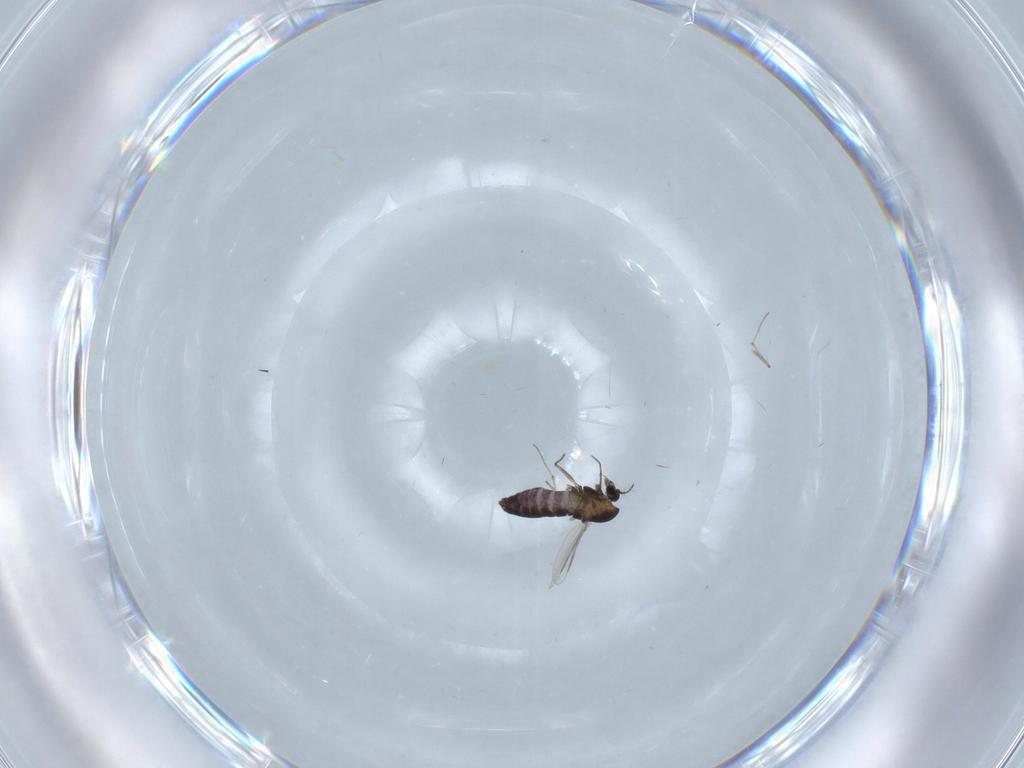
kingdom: Animalia
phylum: Arthropoda
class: Insecta
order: Diptera
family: Chironomidae
